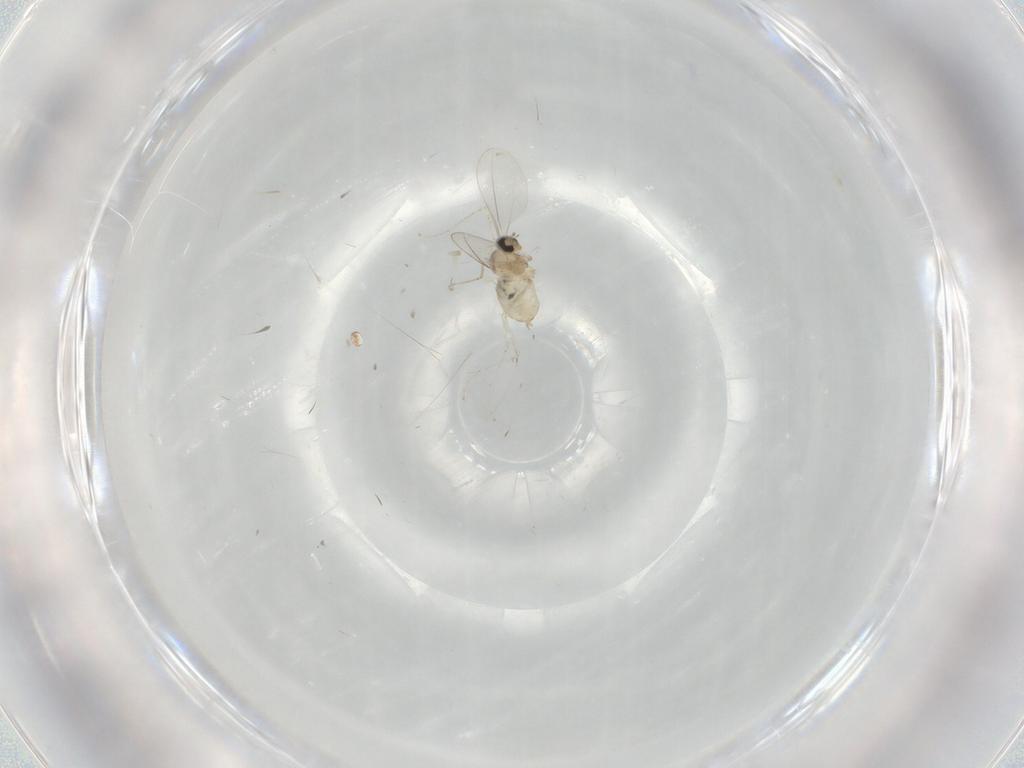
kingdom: Animalia
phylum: Arthropoda
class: Insecta
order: Diptera
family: Cecidomyiidae
